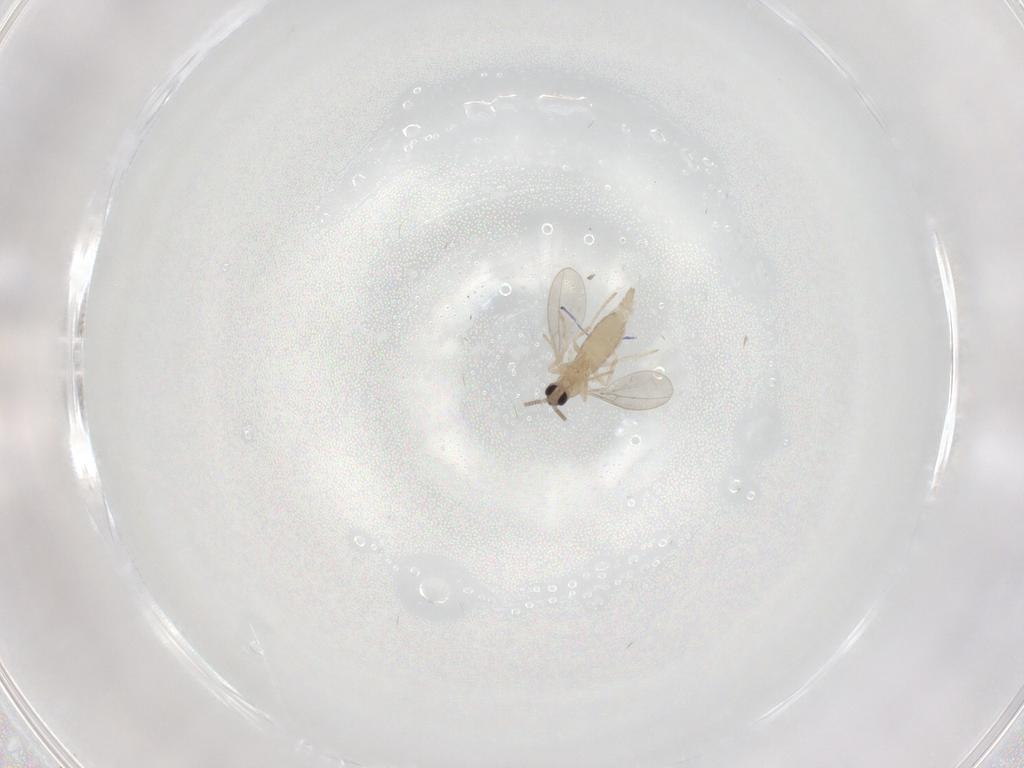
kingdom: Animalia
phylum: Arthropoda
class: Insecta
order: Diptera
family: Cecidomyiidae
